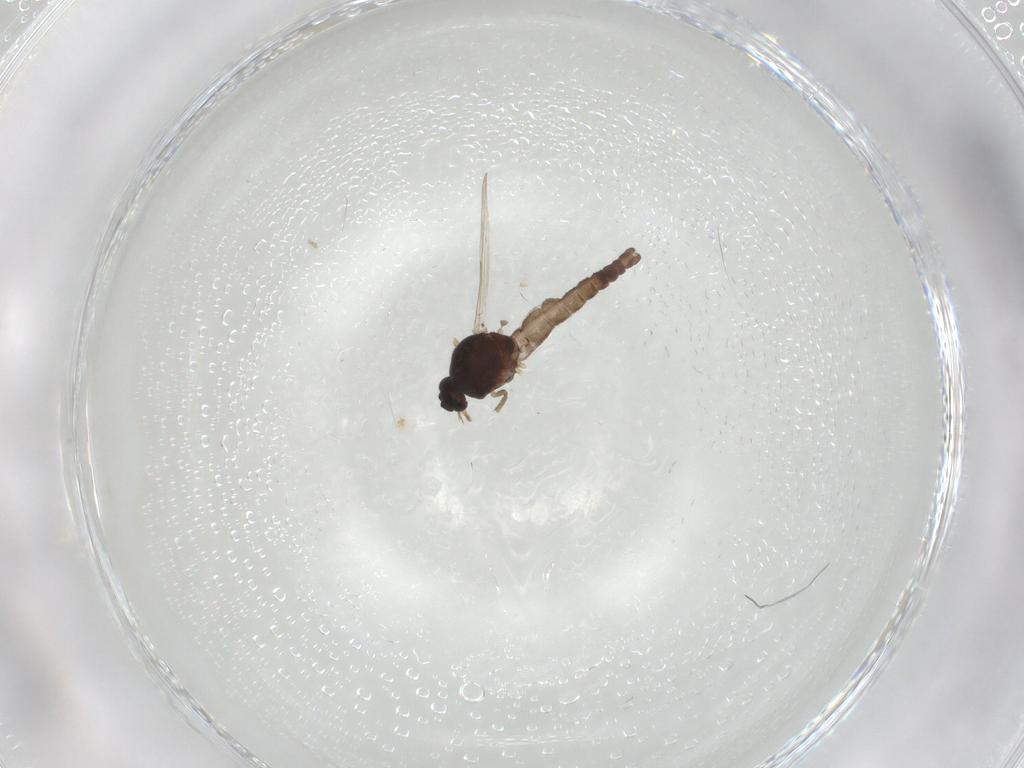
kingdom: Animalia
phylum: Arthropoda
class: Insecta
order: Diptera
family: Ceratopogonidae
